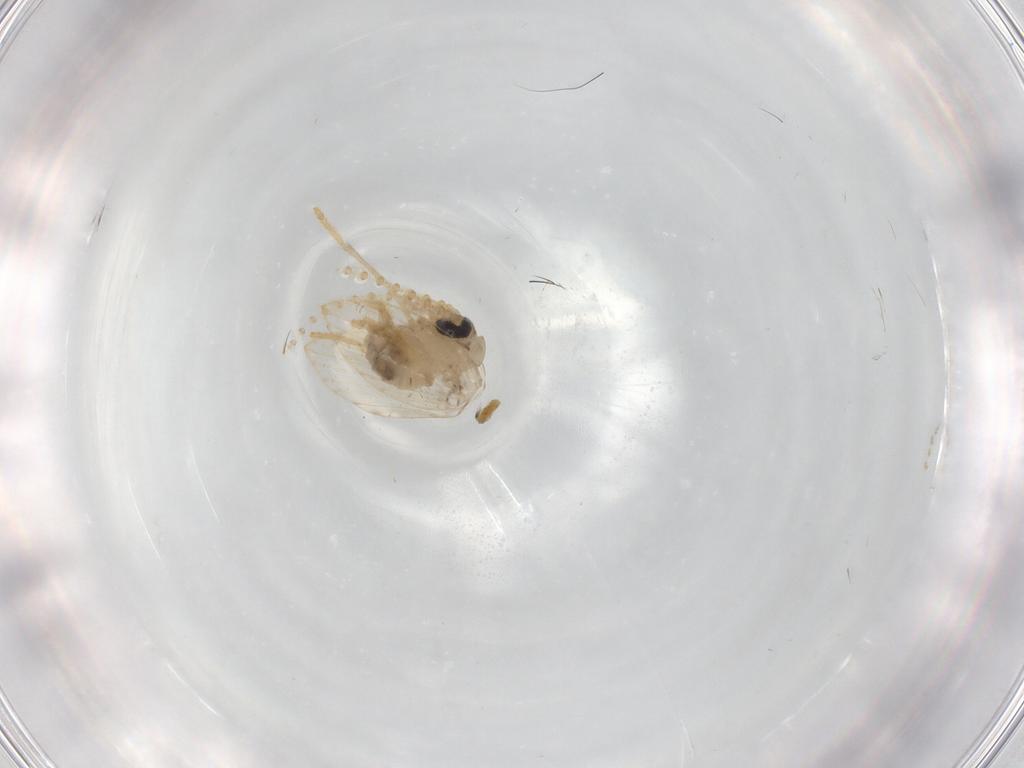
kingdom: Animalia
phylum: Arthropoda
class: Insecta
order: Diptera
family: Psychodidae
